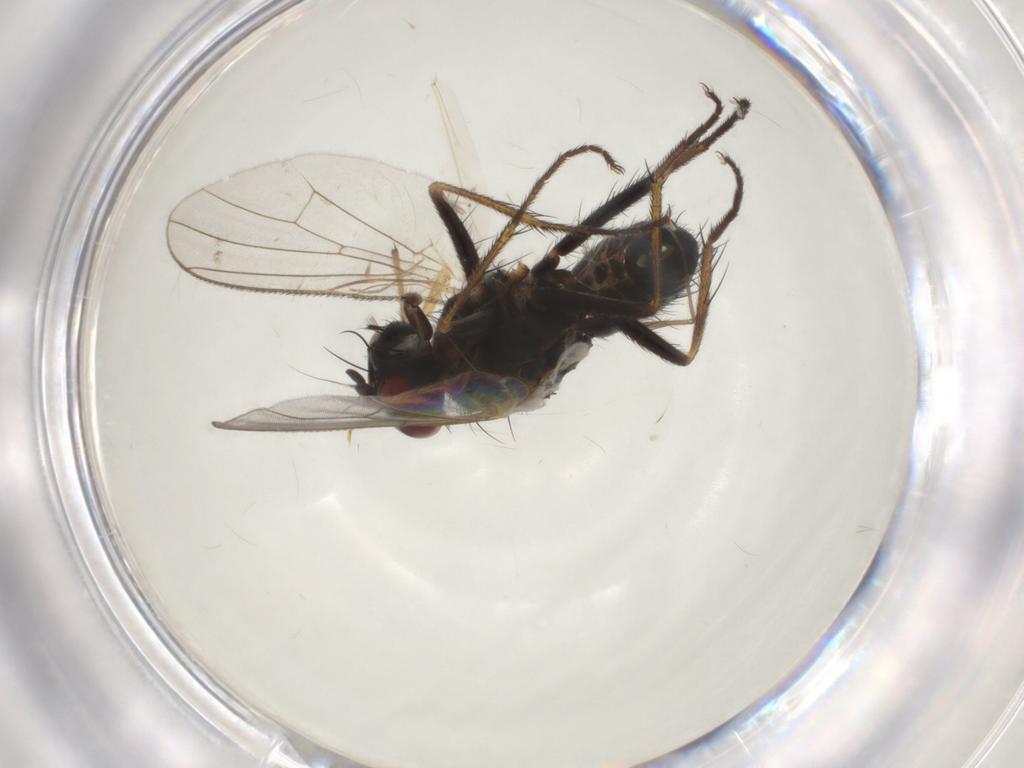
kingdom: Animalia
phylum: Arthropoda
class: Insecta
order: Diptera
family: Muscidae
